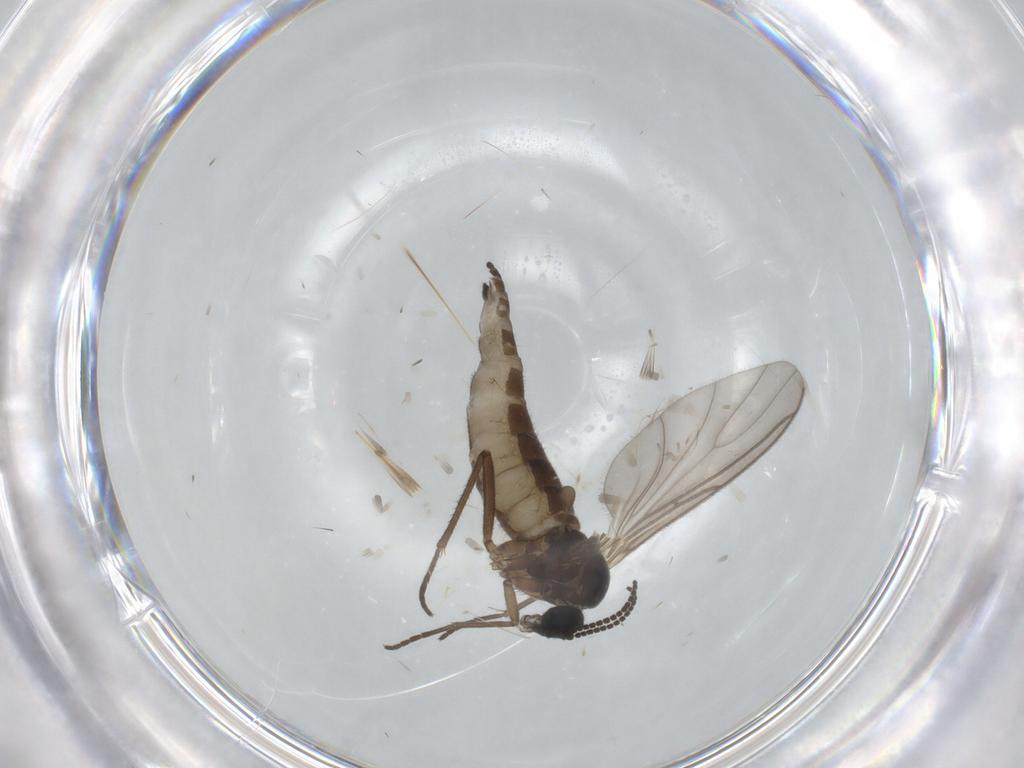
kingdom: Animalia
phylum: Arthropoda
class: Insecta
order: Diptera
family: Sciaridae
